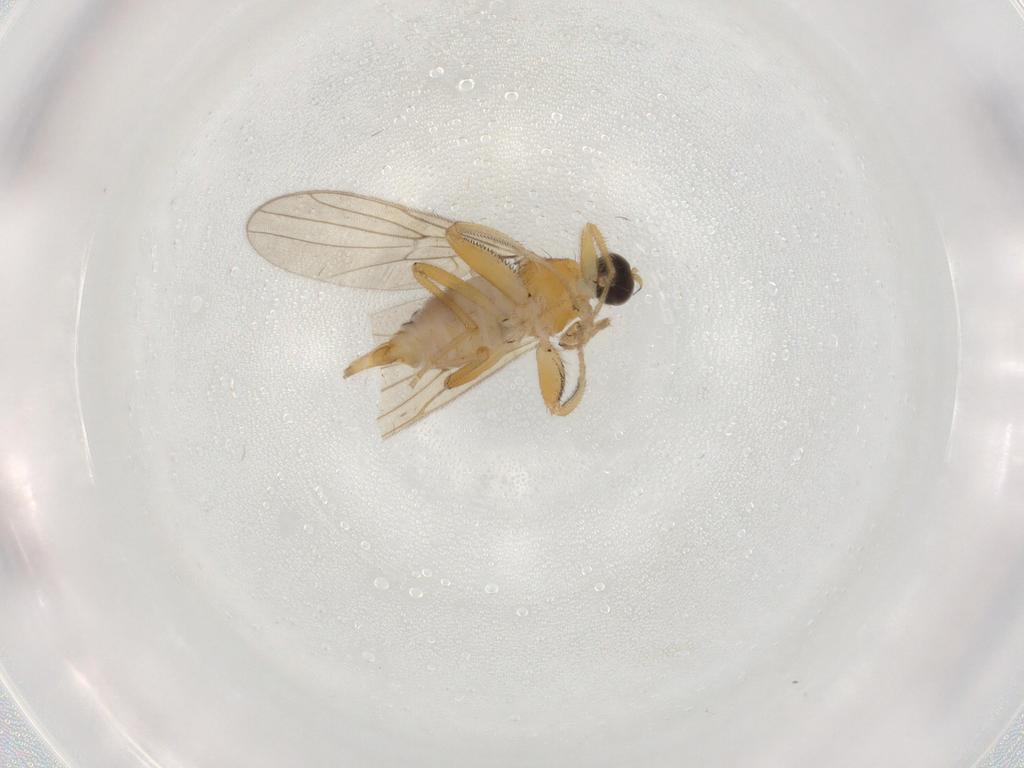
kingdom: Animalia
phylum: Arthropoda
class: Insecta
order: Diptera
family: Hybotidae
